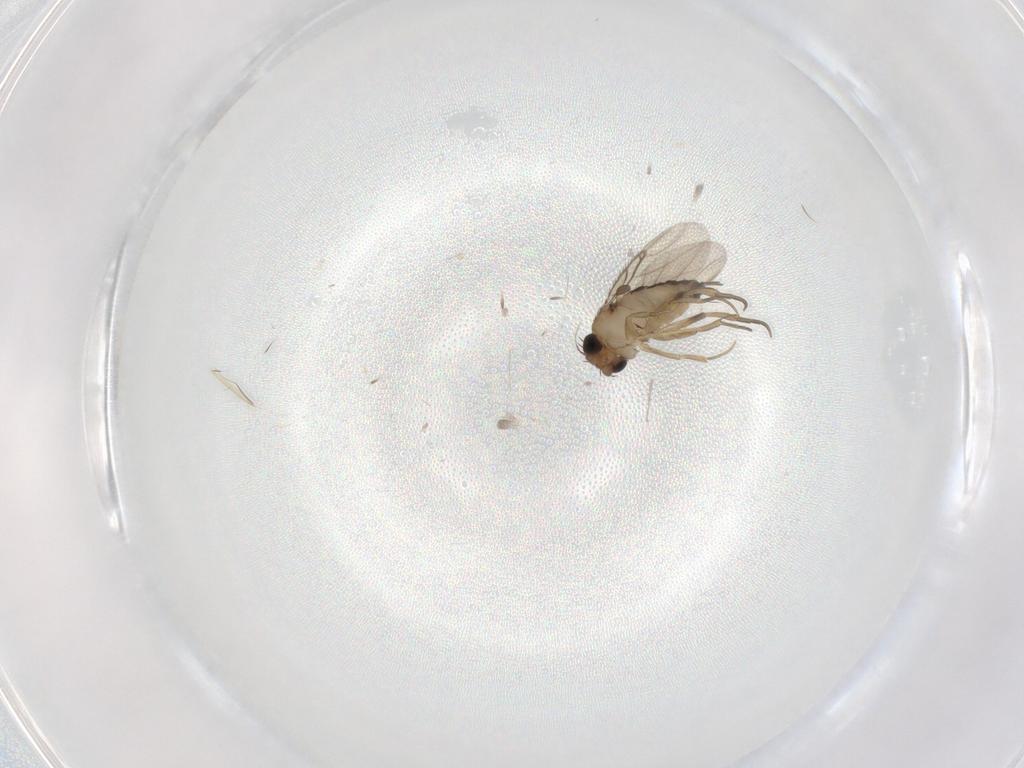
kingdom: Animalia
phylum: Arthropoda
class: Insecta
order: Diptera
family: Phoridae
